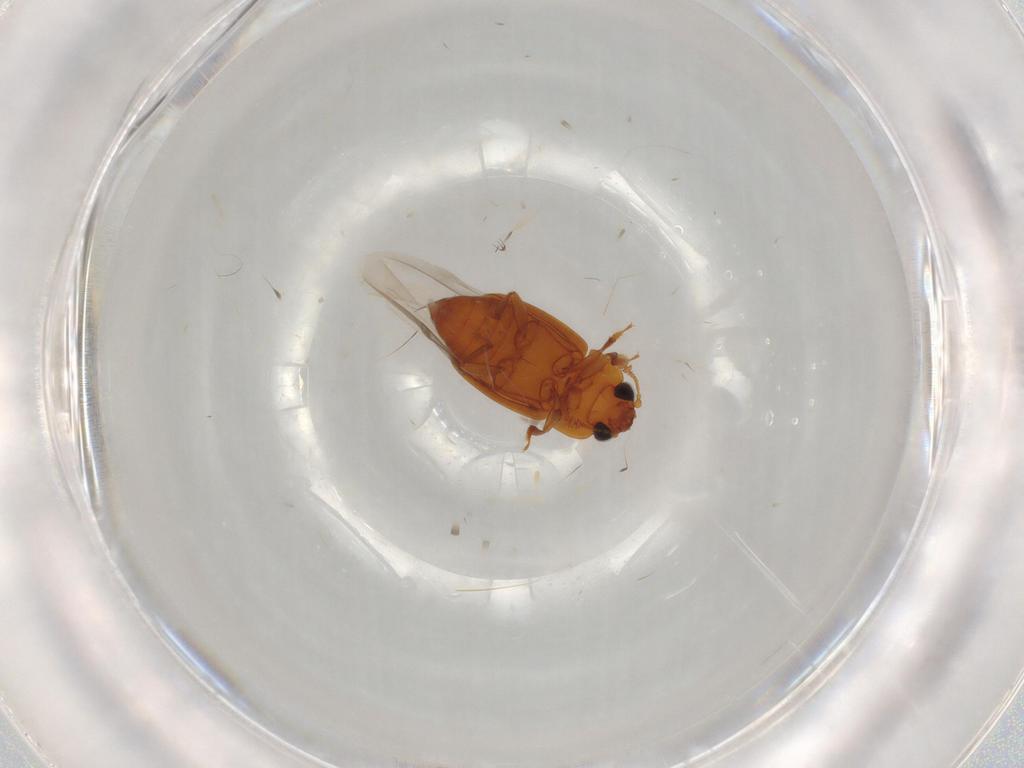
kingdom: Animalia
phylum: Arthropoda
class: Insecta
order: Coleoptera
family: Nitidulidae
